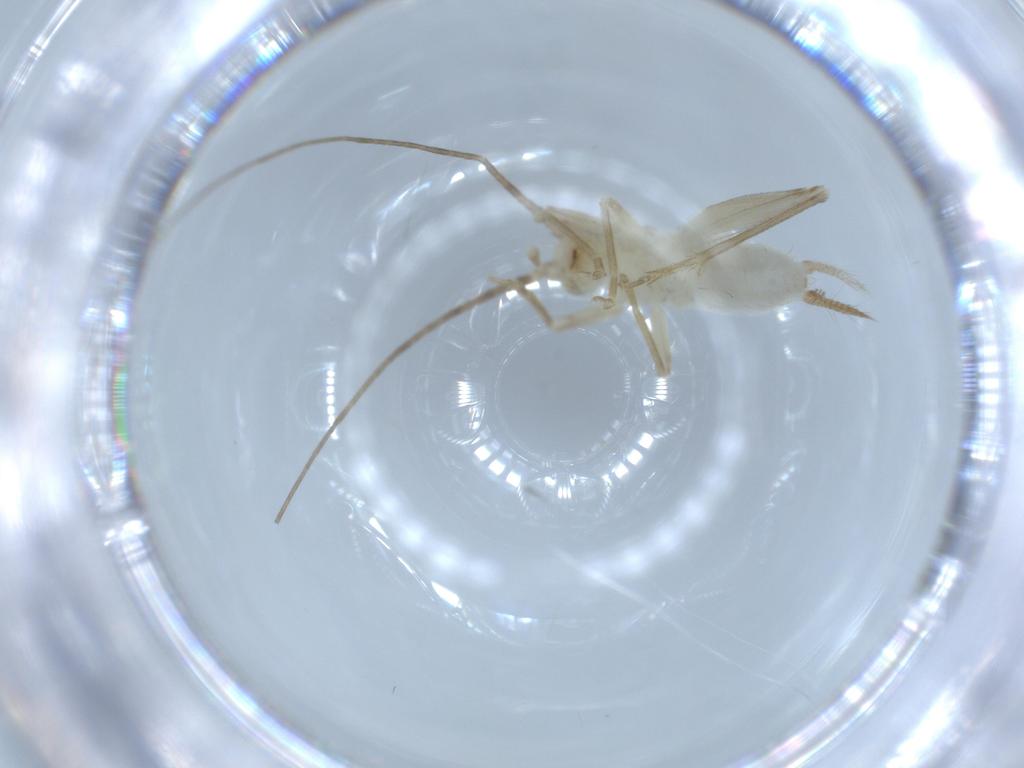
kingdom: Animalia
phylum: Arthropoda
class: Insecta
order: Orthoptera
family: Trigonidiidae
